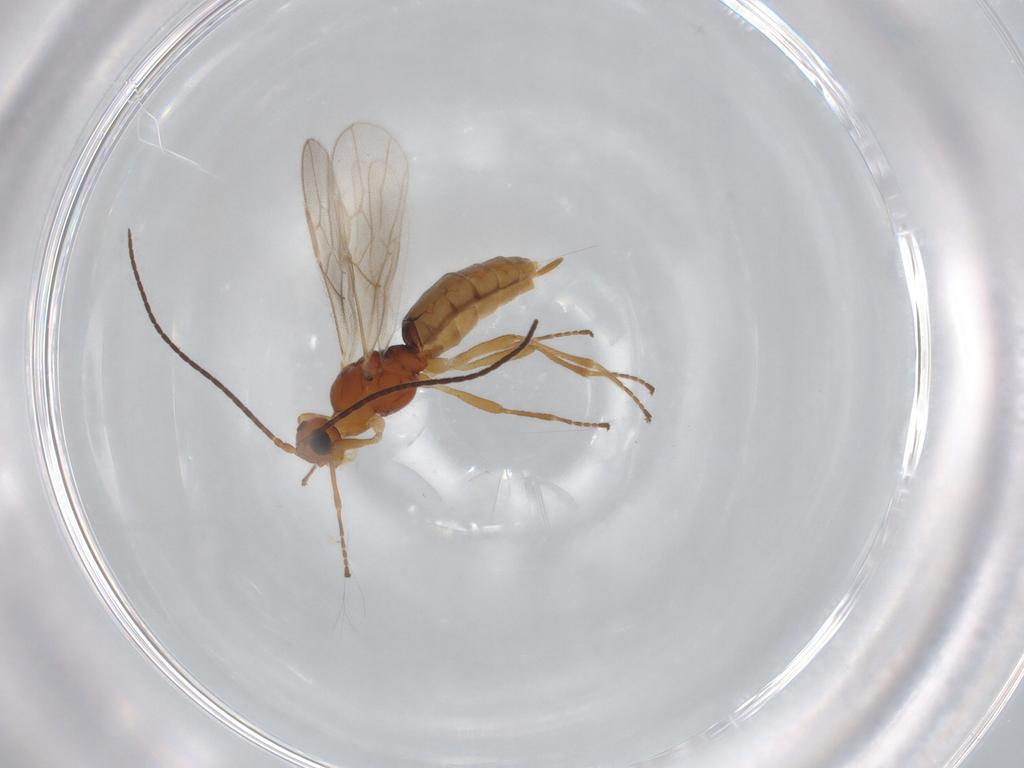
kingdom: Animalia
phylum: Arthropoda
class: Insecta
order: Hymenoptera
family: Braconidae
